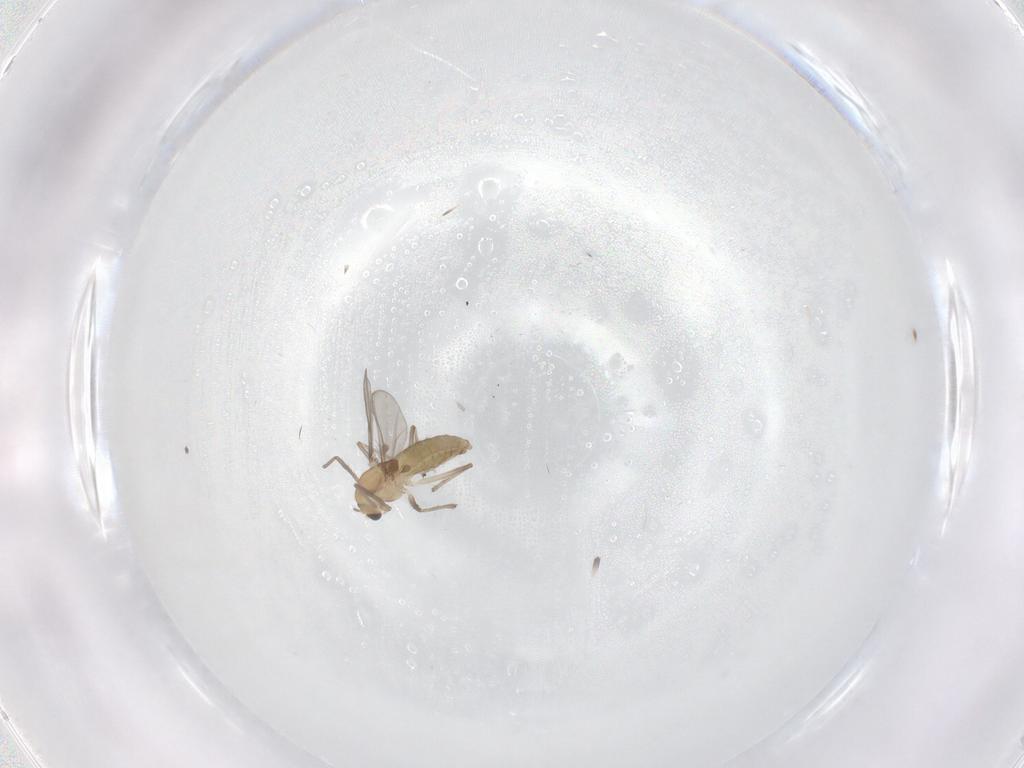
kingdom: Animalia
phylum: Arthropoda
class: Insecta
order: Diptera
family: Chironomidae
